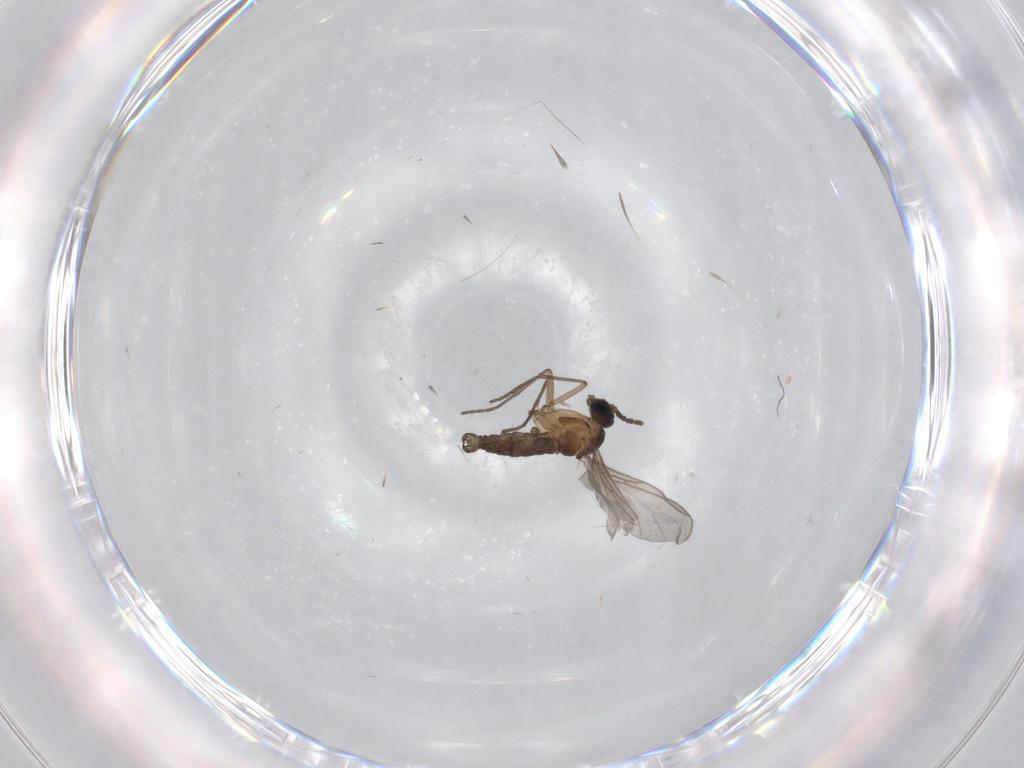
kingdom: Animalia
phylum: Arthropoda
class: Insecta
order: Diptera
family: Sciaridae
